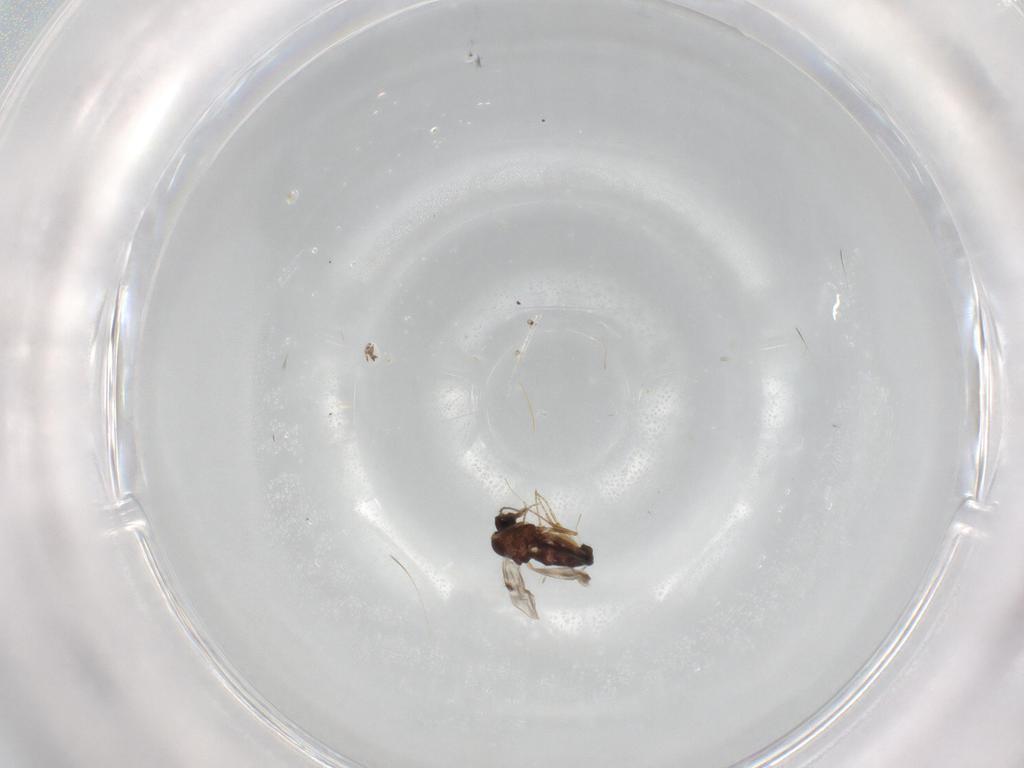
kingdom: Animalia
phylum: Arthropoda
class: Insecta
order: Diptera
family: Cecidomyiidae
